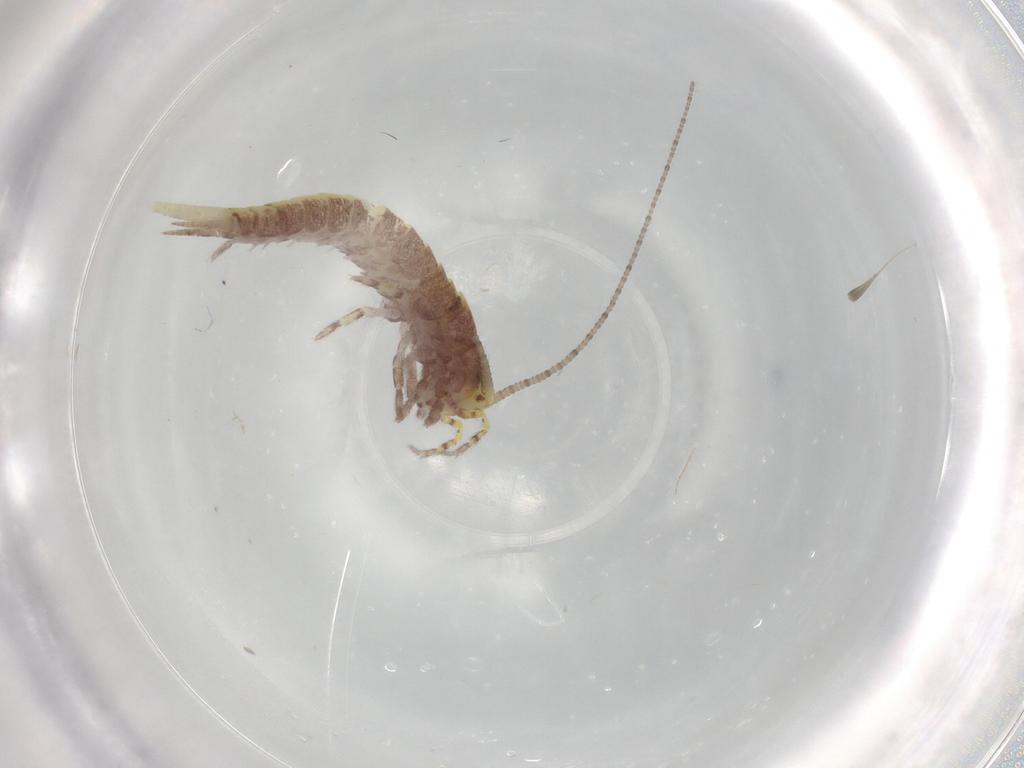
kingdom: Animalia
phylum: Arthropoda
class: Insecta
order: Archaeognatha
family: Machilidae
